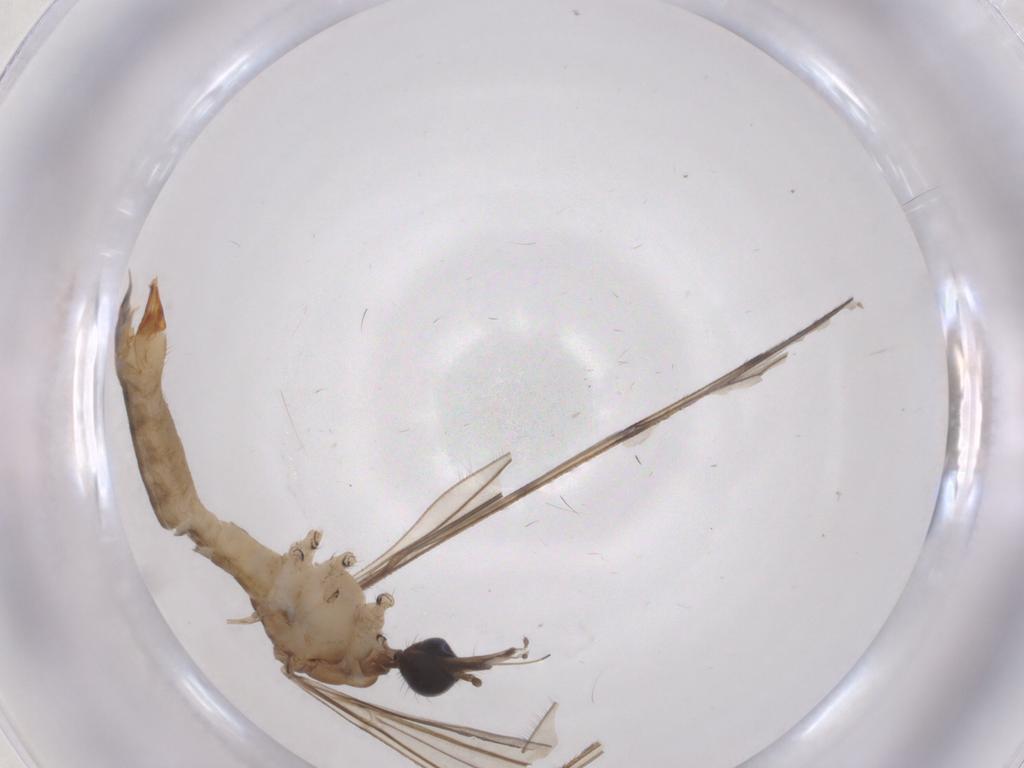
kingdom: Animalia
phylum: Arthropoda
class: Insecta
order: Diptera
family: Limoniidae
